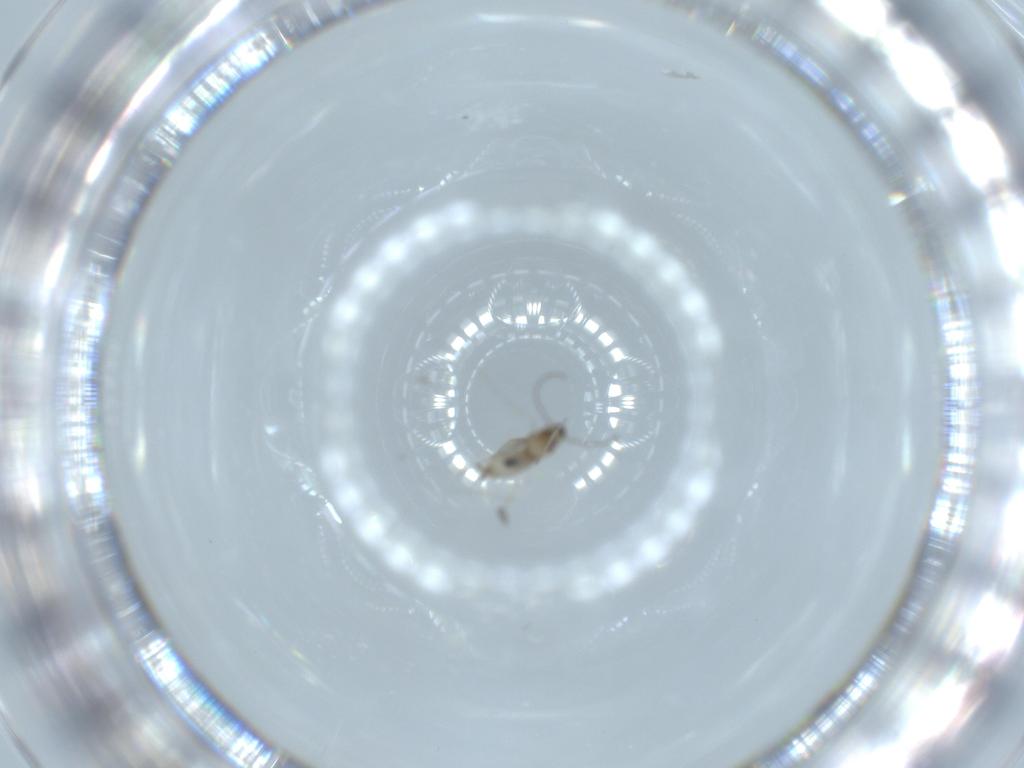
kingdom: Animalia
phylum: Arthropoda
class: Insecta
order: Diptera
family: Cecidomyiidae
